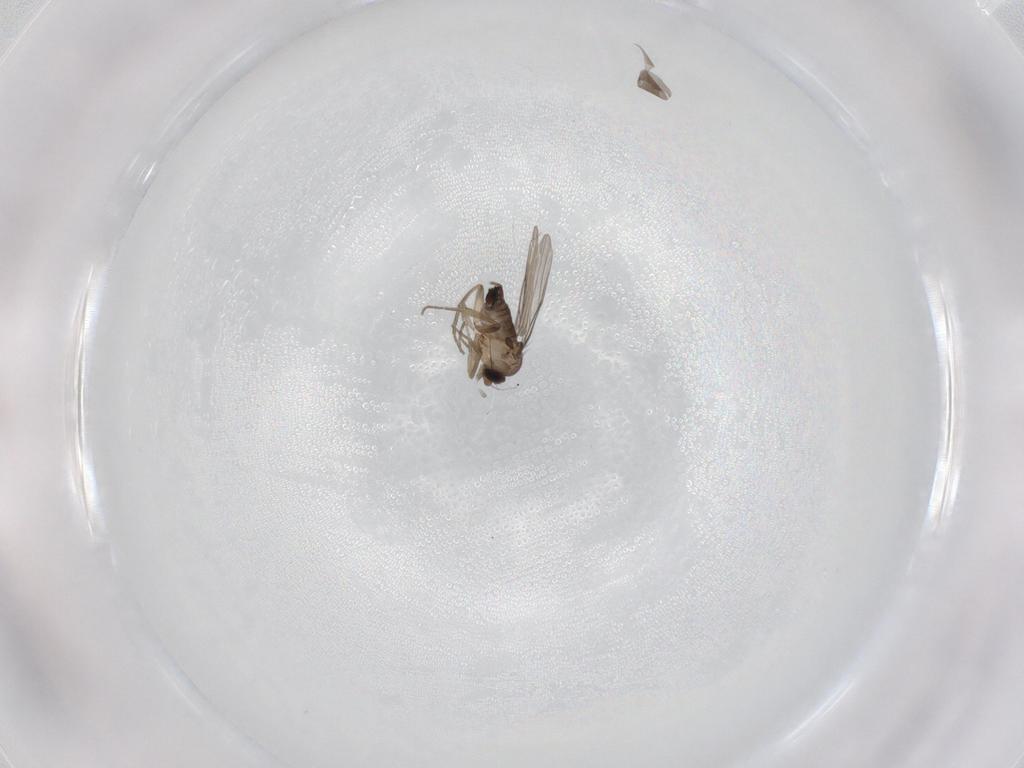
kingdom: Animalia
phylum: Arthropoda
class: Insecta
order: Diptera
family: Phoridae
